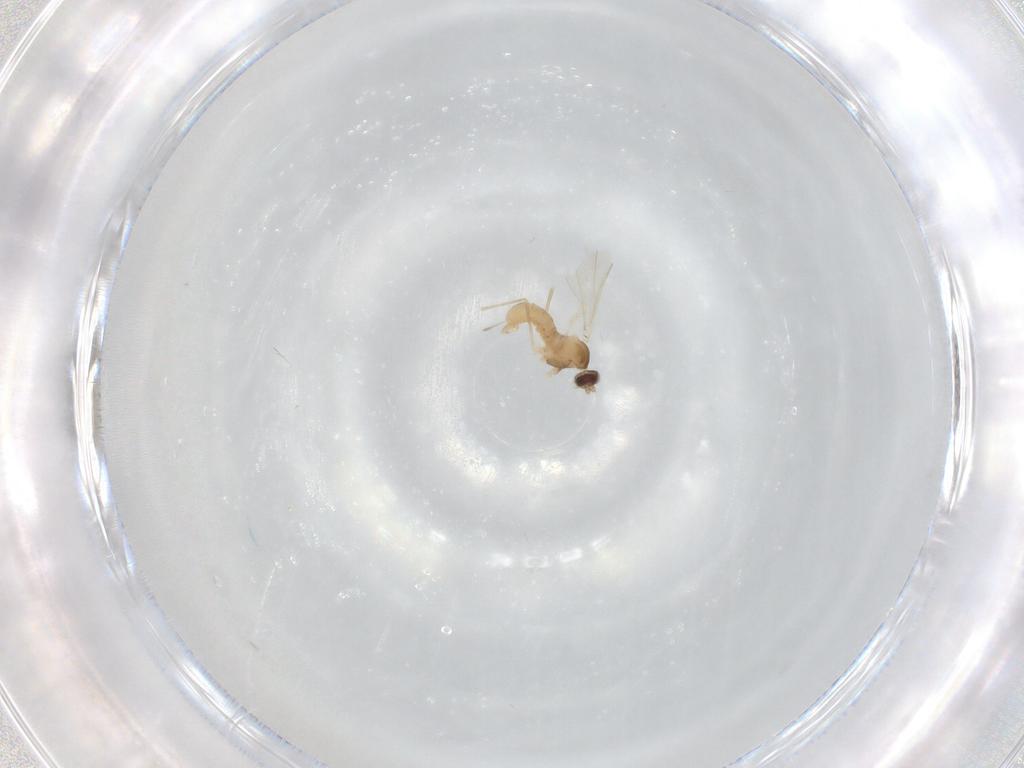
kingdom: Animalia
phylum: Arthropoda
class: Insecta
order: Diptera
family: Cecidomyiidae
